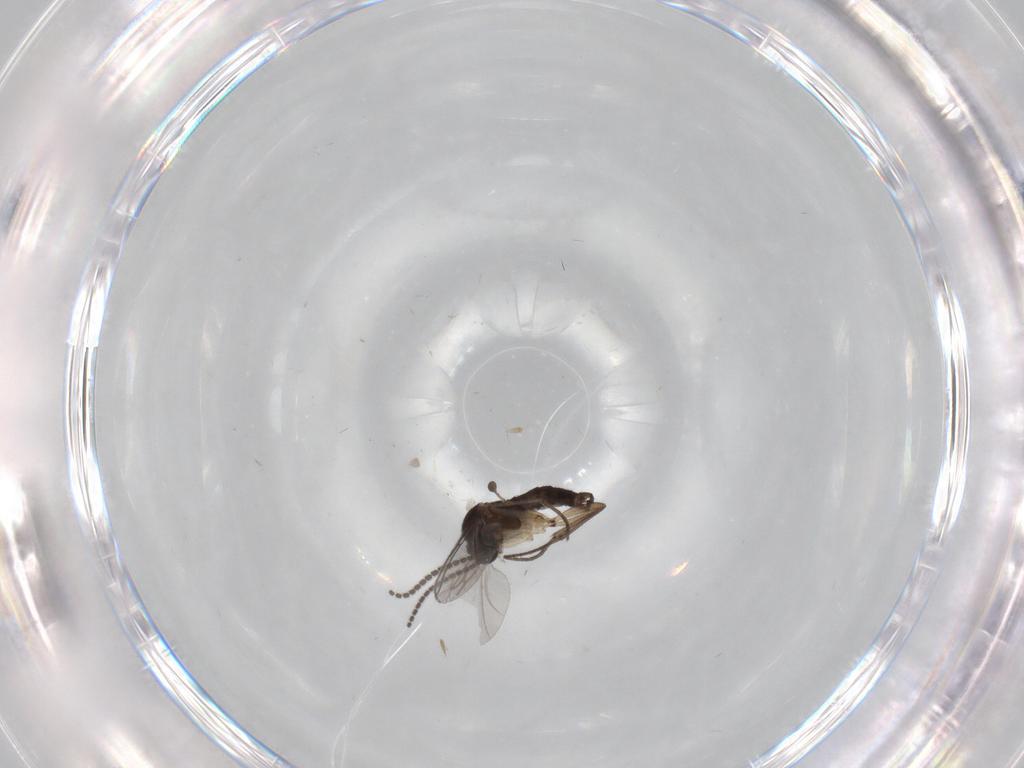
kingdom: Animalia
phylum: Arthropoda
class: Insecta
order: Diptera
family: Sciaridae
